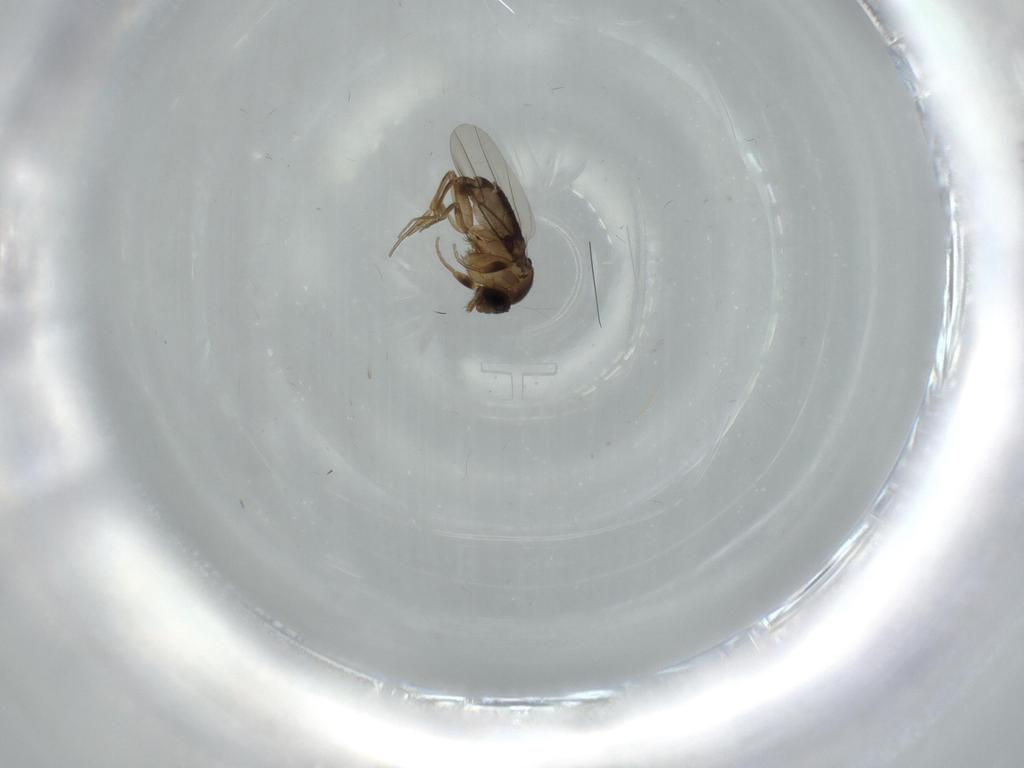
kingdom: Animalia
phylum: Arthropoda
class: Insecta
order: Diptera
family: Phoridae
